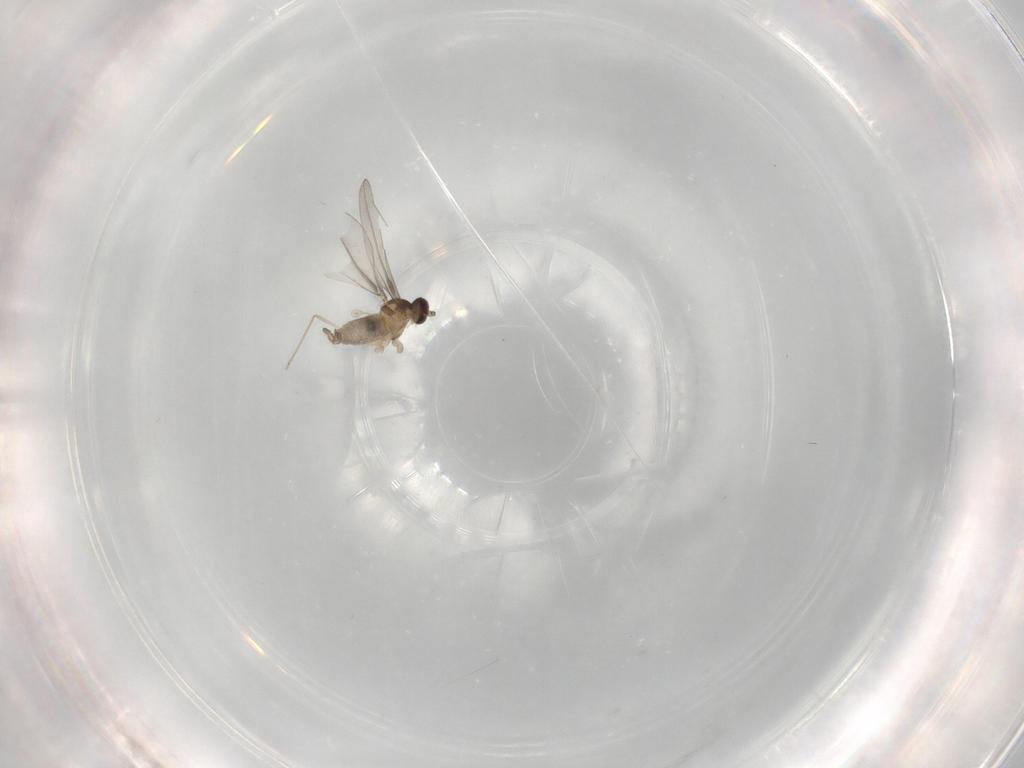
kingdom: Animalia
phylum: Arthropoda
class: Insecta
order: Diptera
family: Cecidomyiidae
